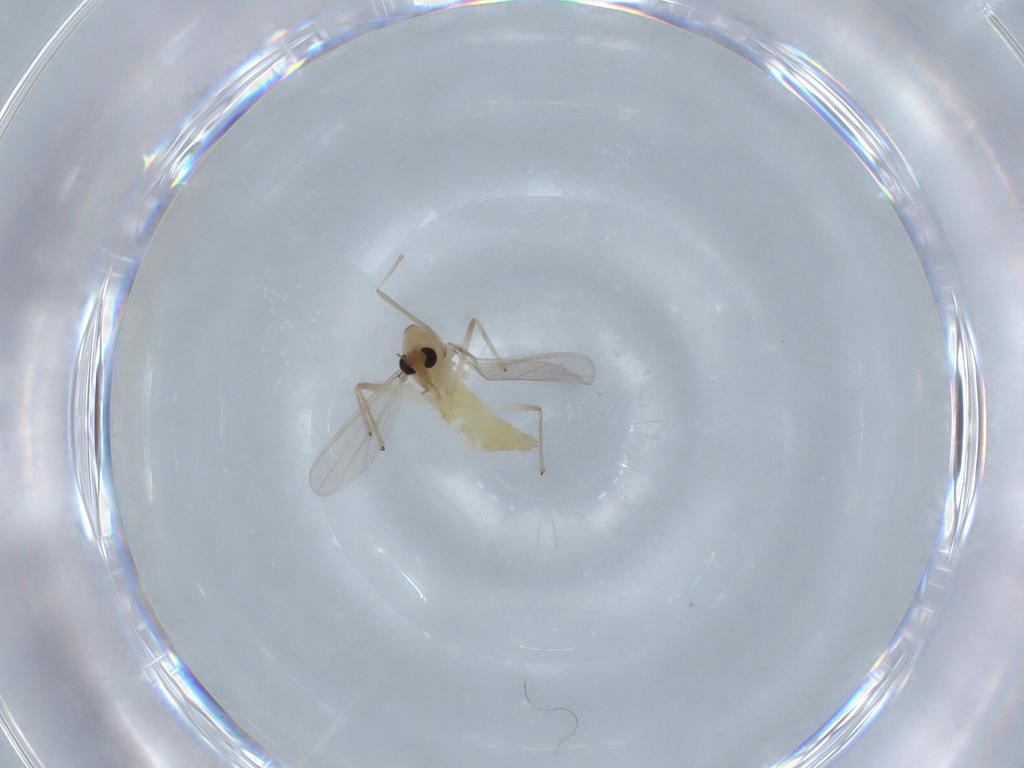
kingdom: Animalia
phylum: Arthropoda
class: Insecta
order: Diptera
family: Chironomidae
